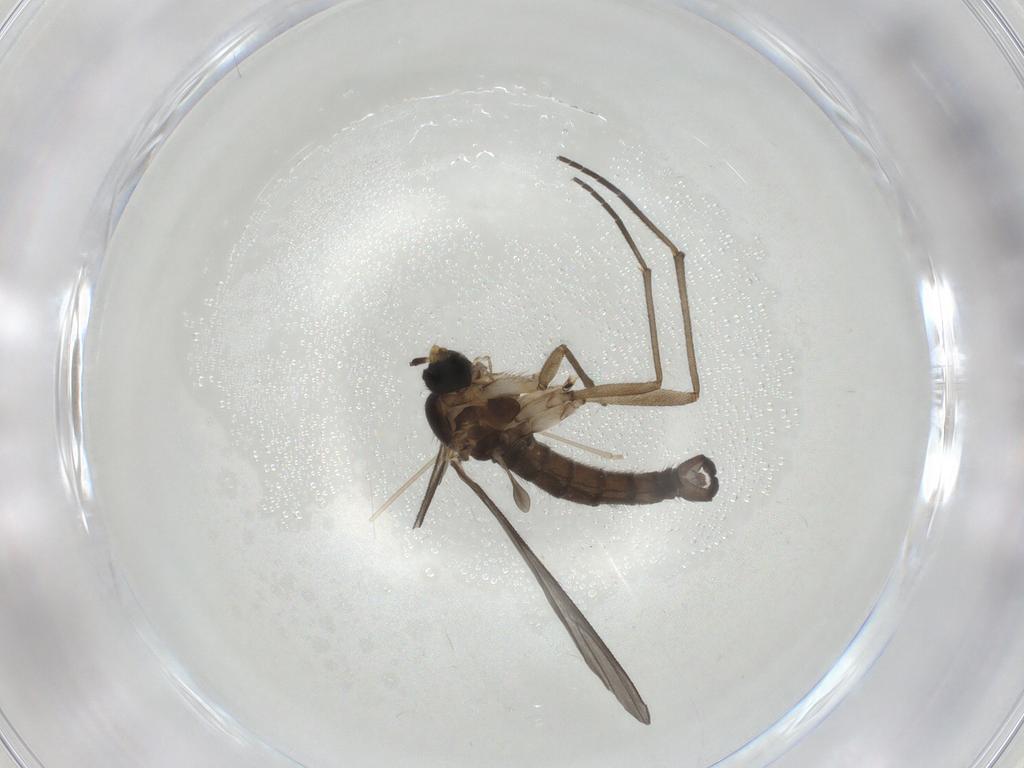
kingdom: Animalia
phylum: Arthropoda
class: Insecta
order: Diptera
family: Sciaridae
